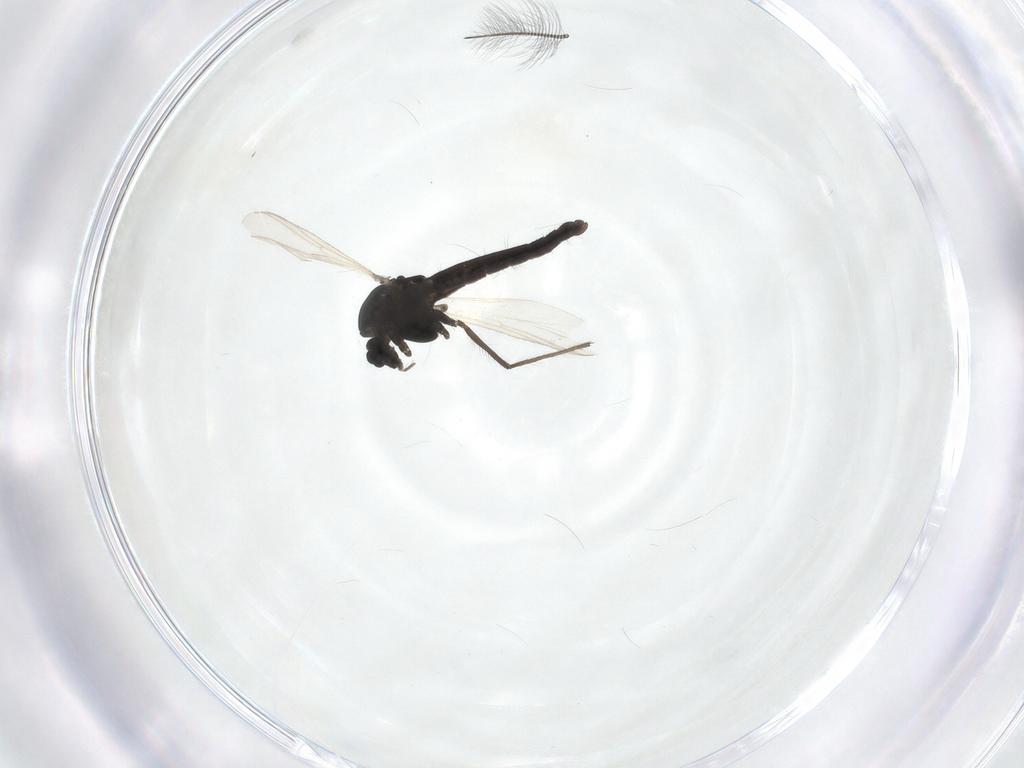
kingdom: Animalia
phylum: Arthropoda
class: Insecta
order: Diptera
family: Chironomidae
